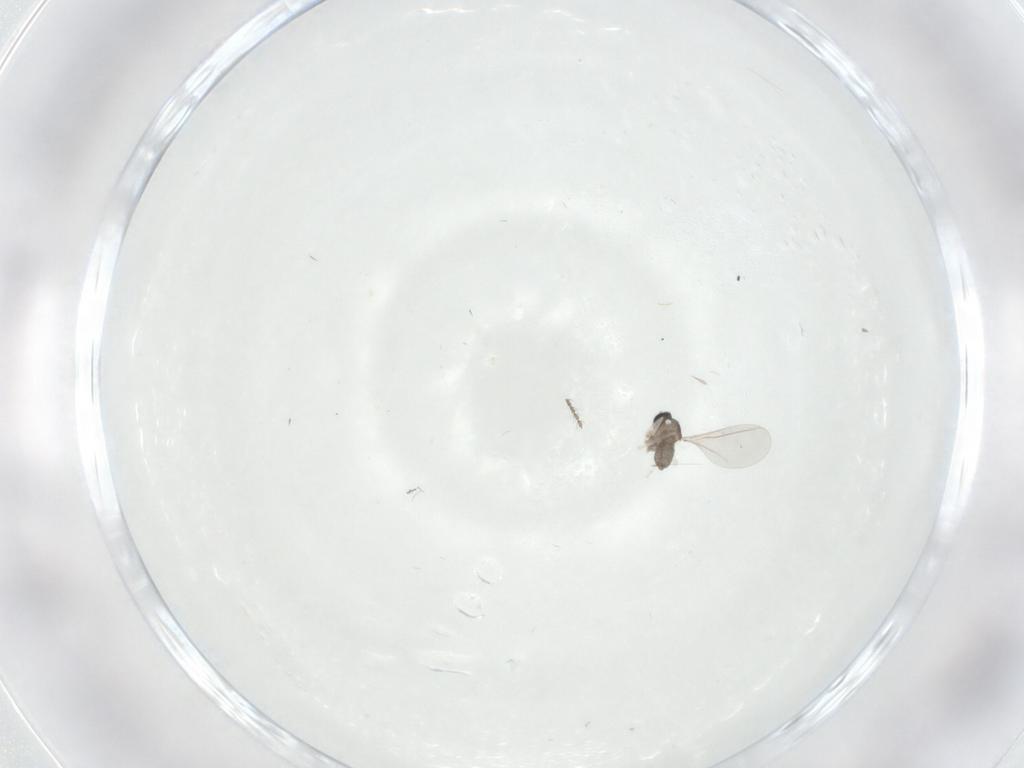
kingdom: Animalia
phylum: Arthropoda
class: Insecta
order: Diptera
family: Cecidomyiidae
